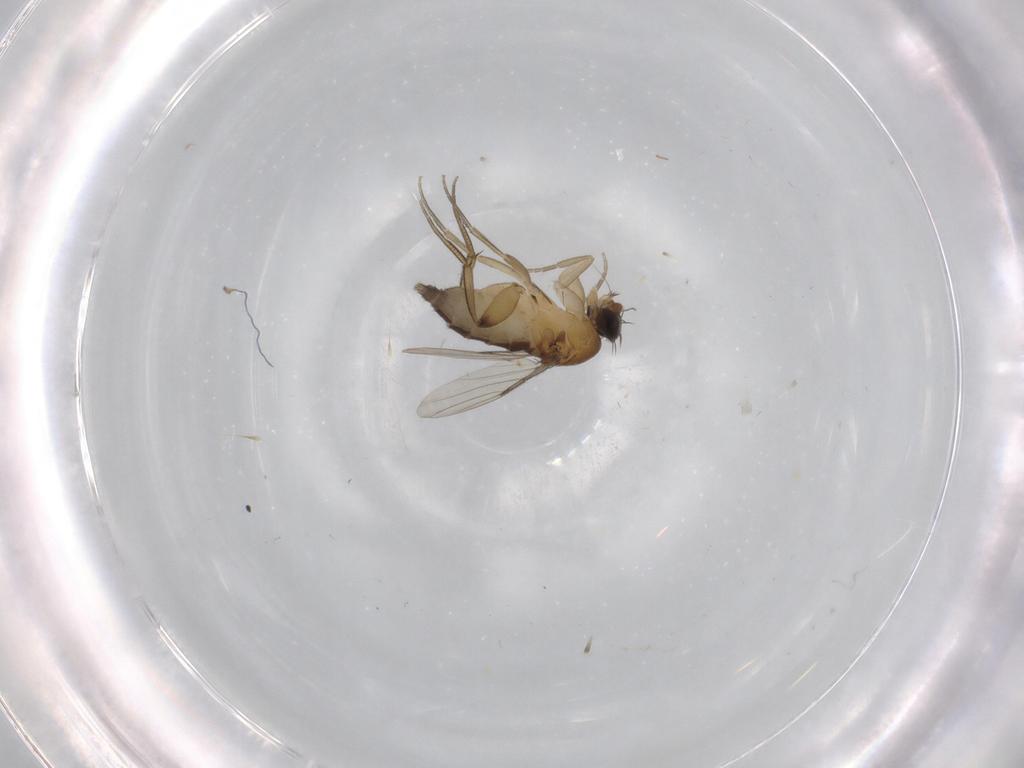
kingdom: Animalia
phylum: Arthropoda
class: Insecta
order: Diptera
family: Phoridae
